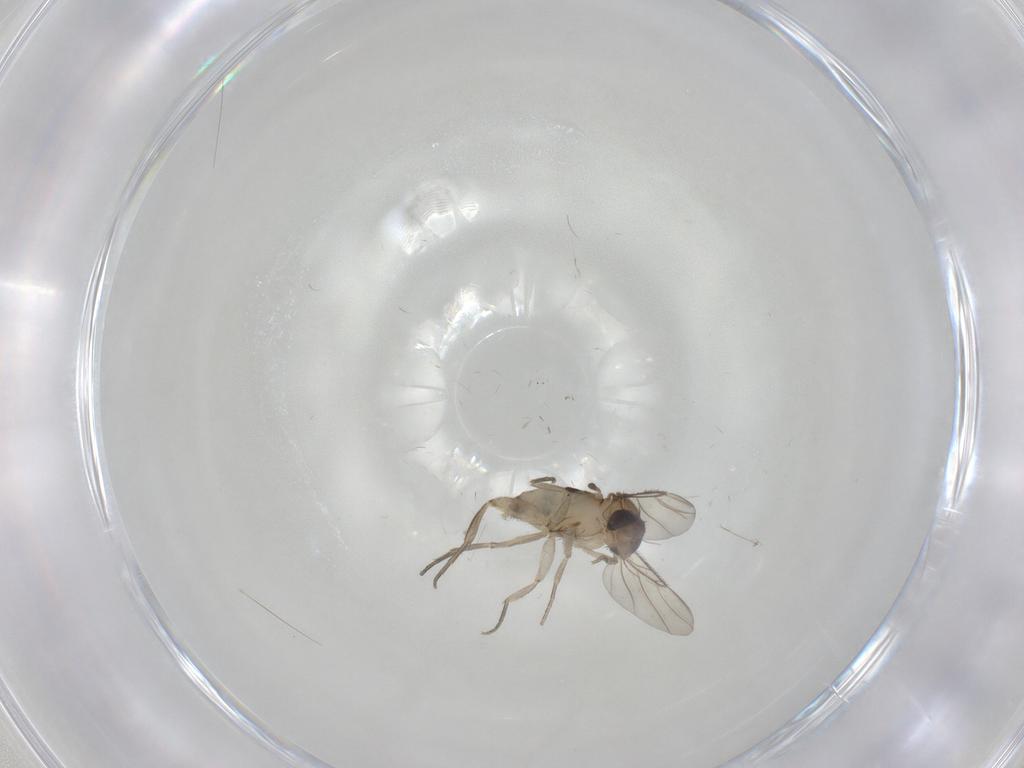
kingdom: Animalia
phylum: Arthropoda
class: Insecta
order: Diptera
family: Phoridae
